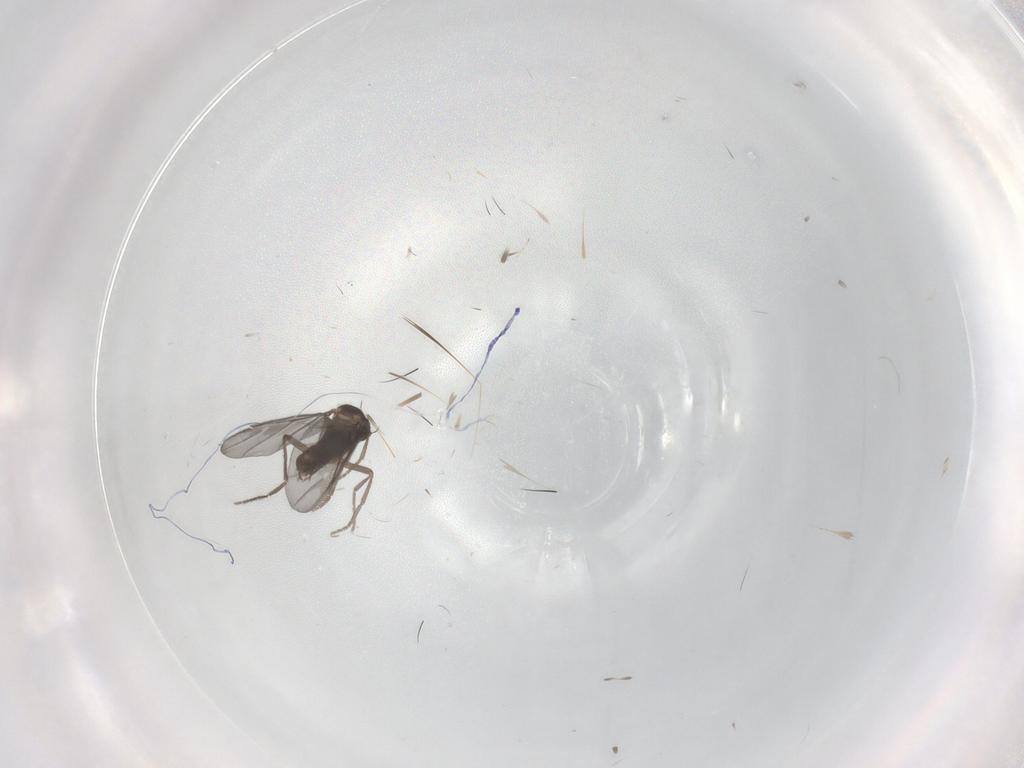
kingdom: Animalia
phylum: Arthropoda
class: Insecta
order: Diptera
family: Phoridae
